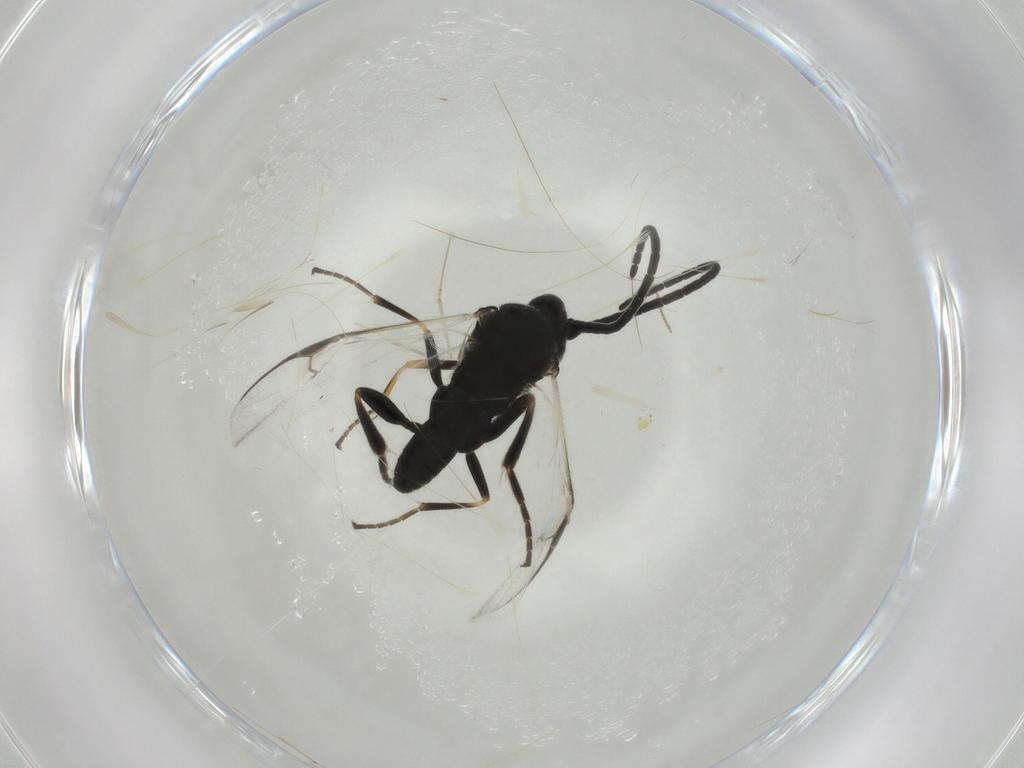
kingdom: Animalia
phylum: Arthropoda
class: Insecta
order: Hymenoptera
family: Braconidae
